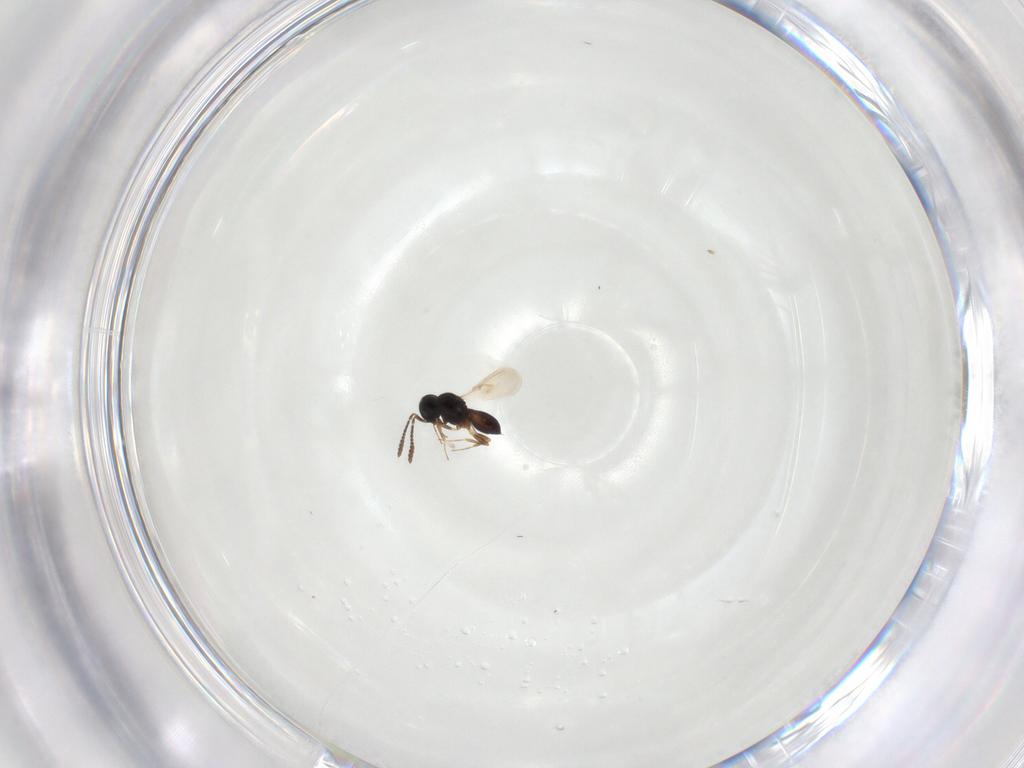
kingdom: Animalia
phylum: Arthropoda
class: Insecta
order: Hymenoptera
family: Scelionidae
